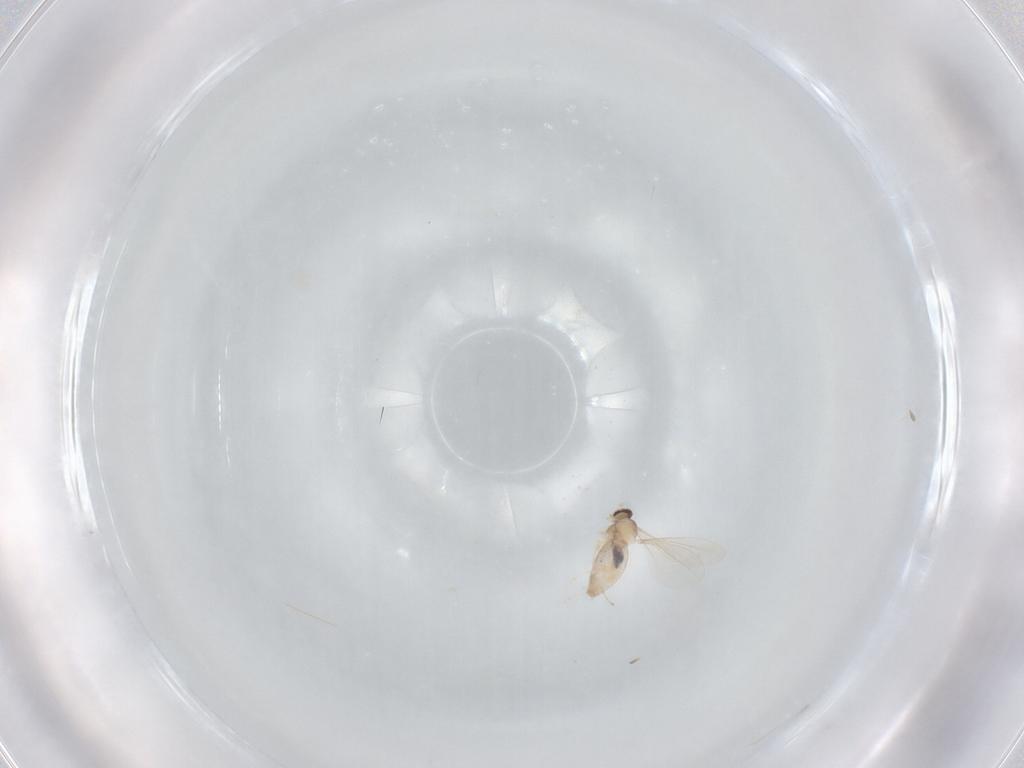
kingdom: Animalia
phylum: Arthropoda
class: Insecta
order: Diptera
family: Cecidomyiidae
